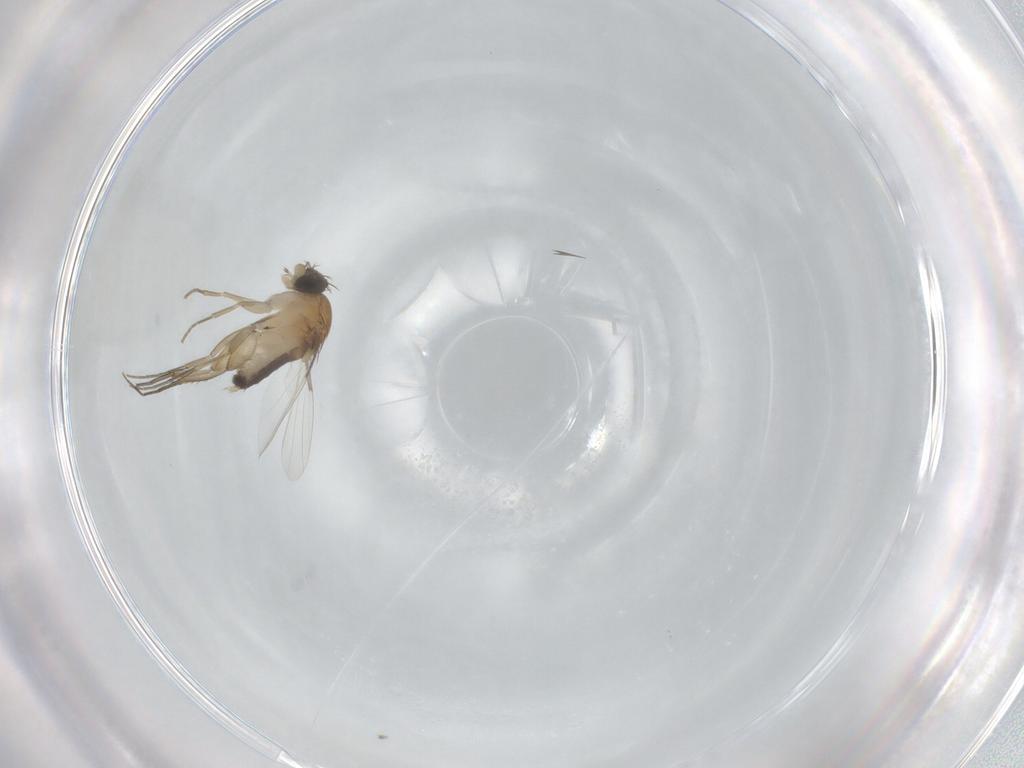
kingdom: Animalia
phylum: Arthropoda
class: Insecta
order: Diptera
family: Phoridae
